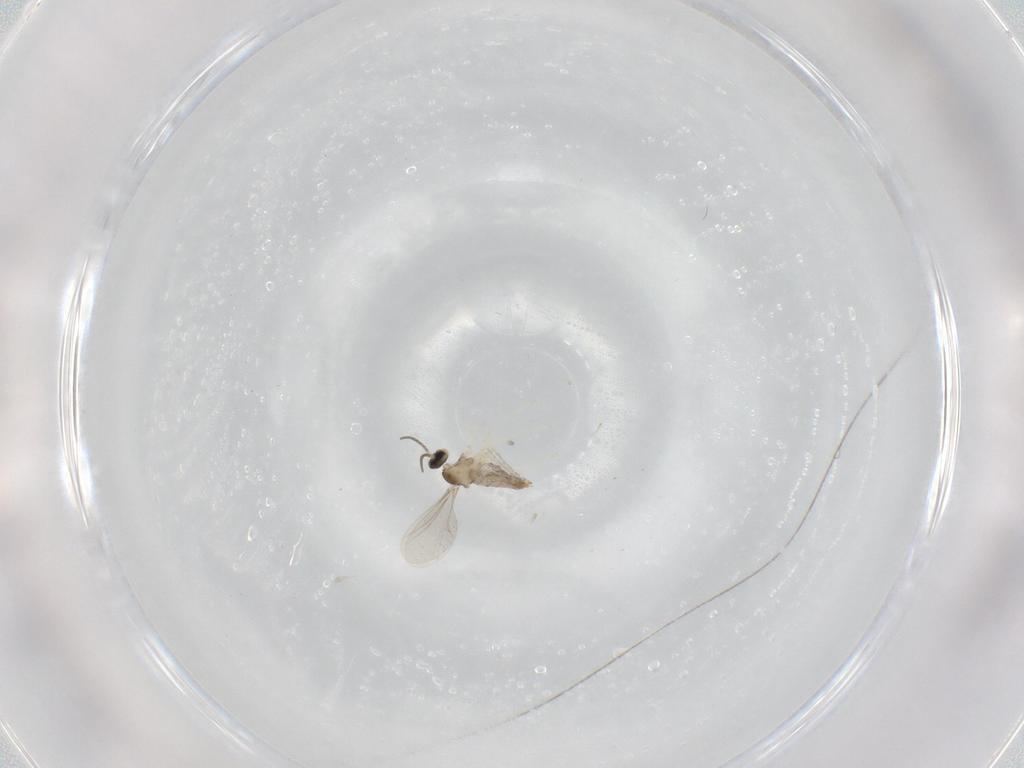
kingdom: Animalia
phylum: Arthropoda
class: Insecta
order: Diptera
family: Cecidomyiidae
